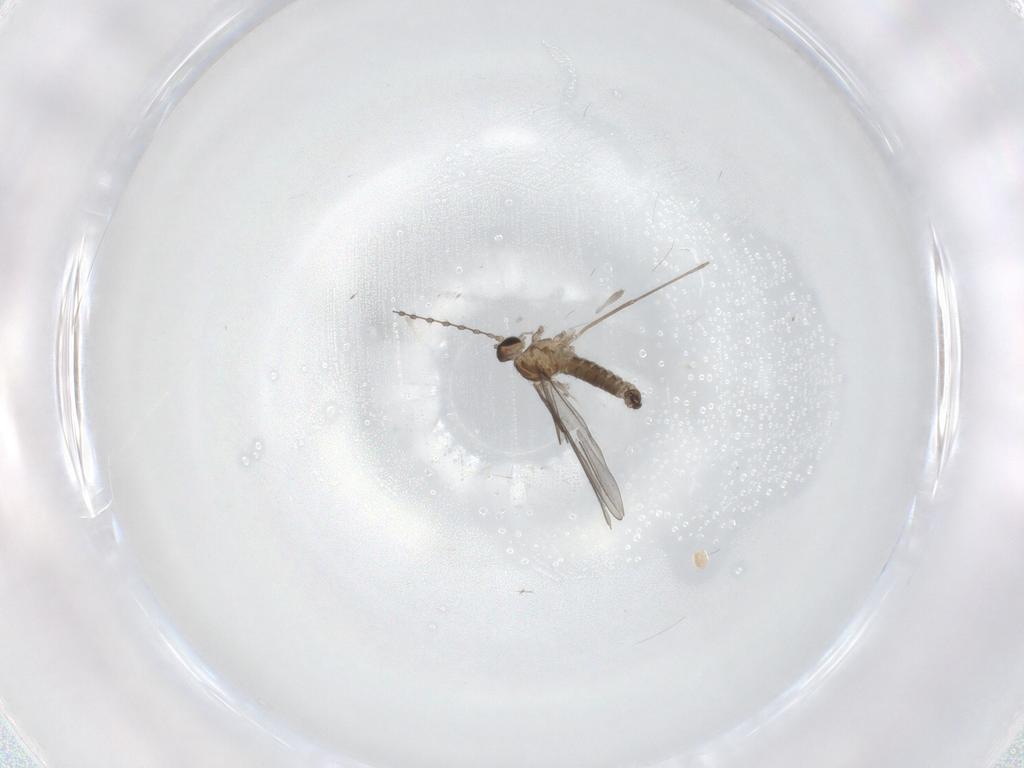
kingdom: Animalia
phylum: Arthropoda
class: Insecta
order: Diptera
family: Cecidomyiidae
